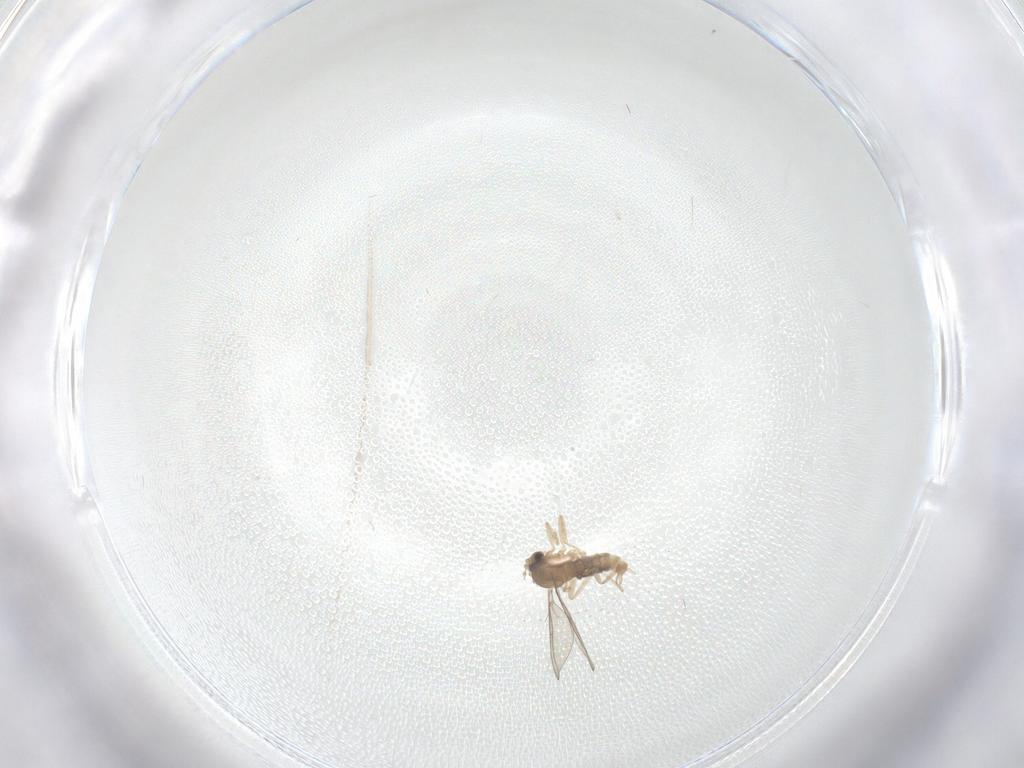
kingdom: Animalia
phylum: Arthropoda
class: Insecta
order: Diptera
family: Cecidomyiidae
